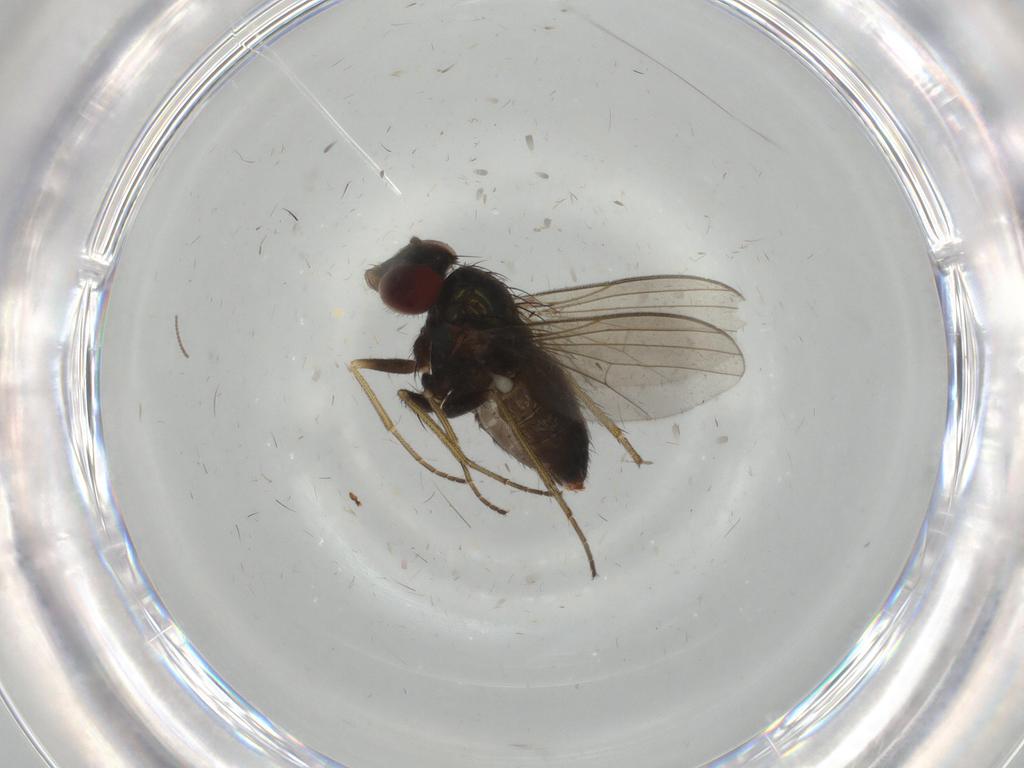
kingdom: Animalia
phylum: Arthropoda
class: Insecta
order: Diptera
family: Dolichopodidae
